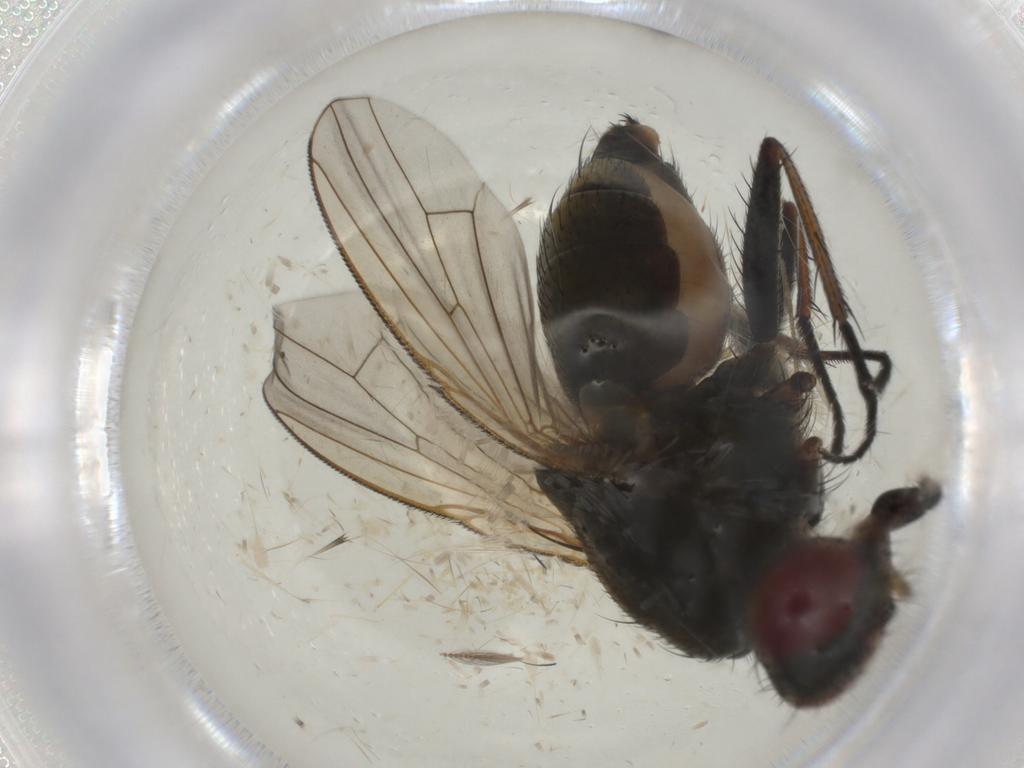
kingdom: Animalia
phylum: Arthropoda
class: Insecta
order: Diptera
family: Muscidae
